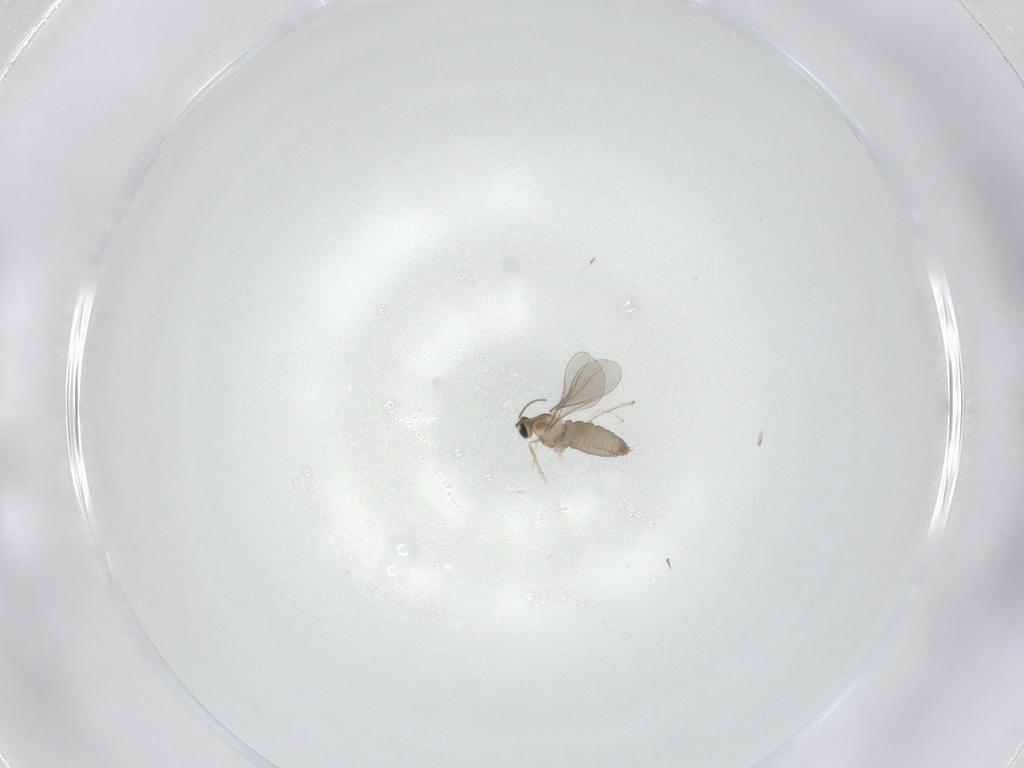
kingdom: Animalia
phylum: Arthropoda
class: Insecta
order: Diptera
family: Cecidomyiidae
